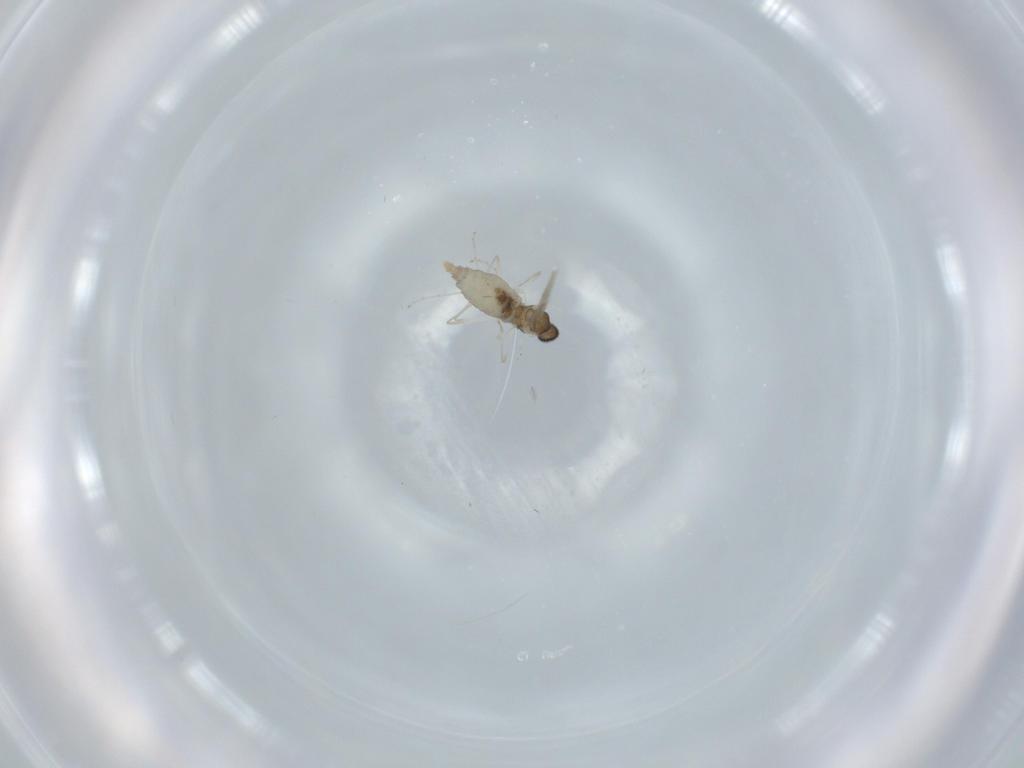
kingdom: Animalia
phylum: Arthropoda
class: Insecta
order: Diptera
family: Cecidomyiidae
